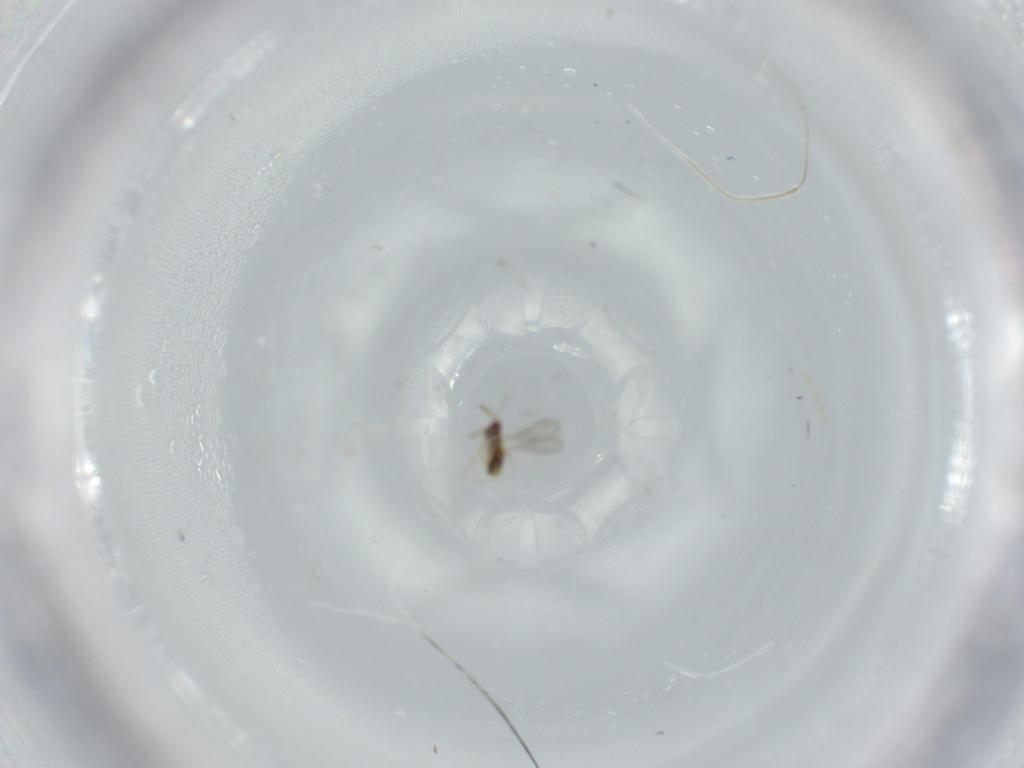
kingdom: Animalia
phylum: Arthropoda
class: Insecta
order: Hymenoptera
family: Aphelinidae
